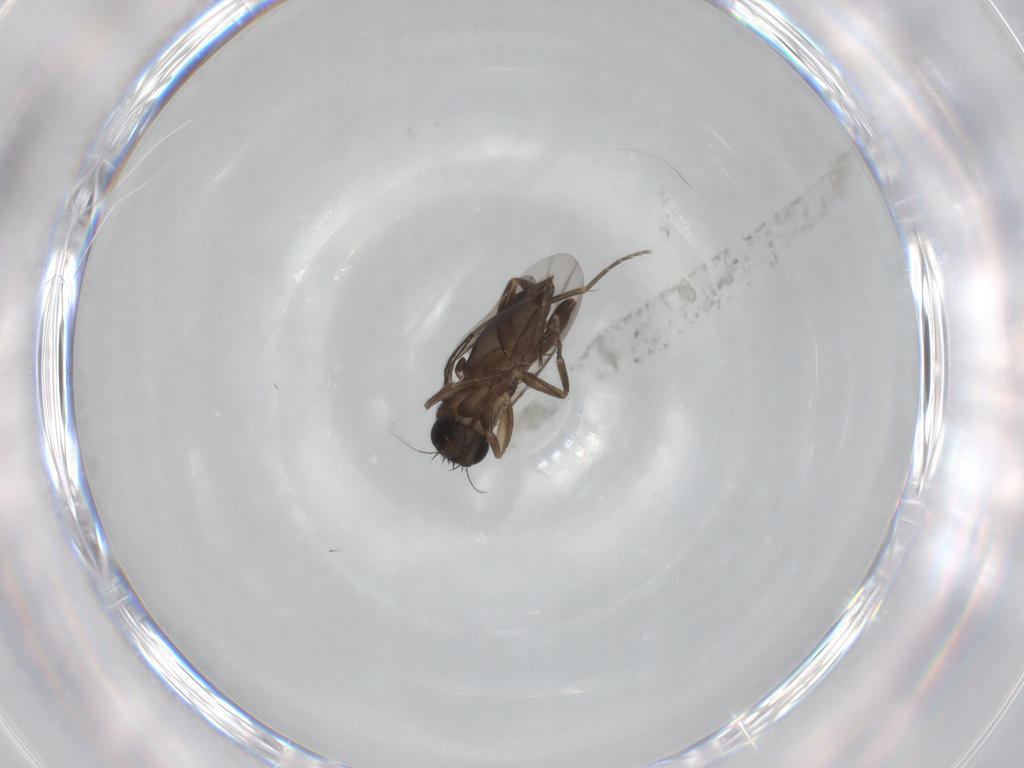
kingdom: Animalia
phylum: Arthropoda
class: Insecta
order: Diptera
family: Phoridae
